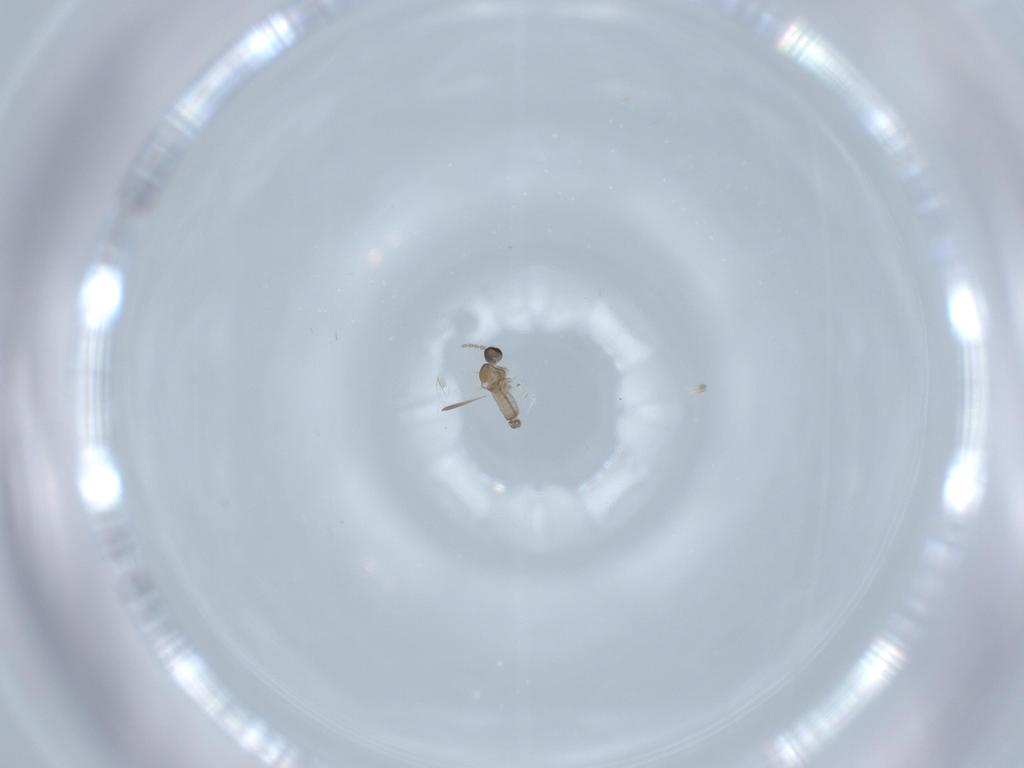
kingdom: Animalia
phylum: Arthropoda
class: Insecta
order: Diptera
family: Cecidomyiidae
